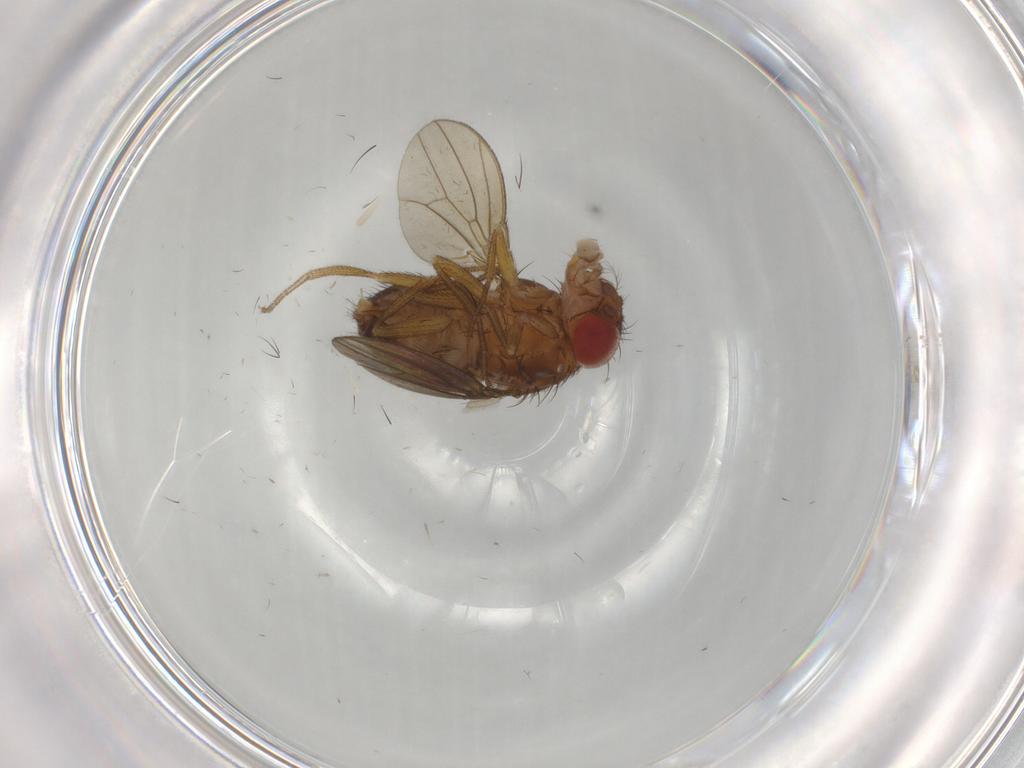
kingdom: Animalia
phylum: Arthropoda
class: Insecta
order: Diptera
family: Drosophilidae
